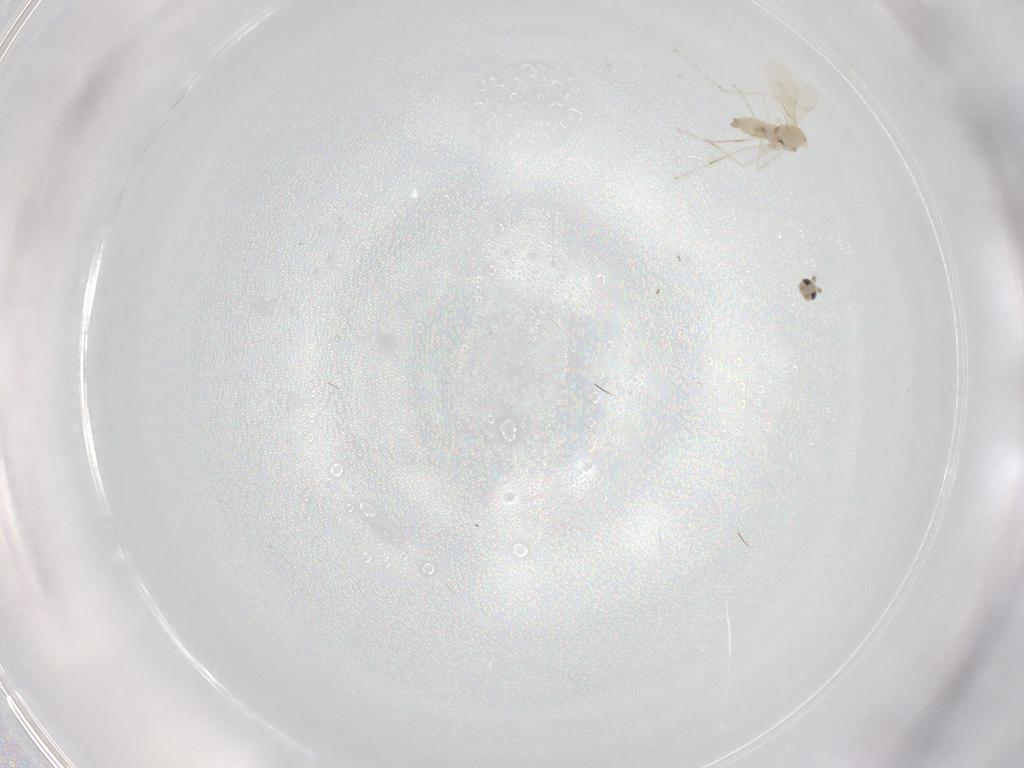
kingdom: Animalia
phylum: Arthropoda
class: Insecta
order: Diptera
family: Cecidomyiidae
